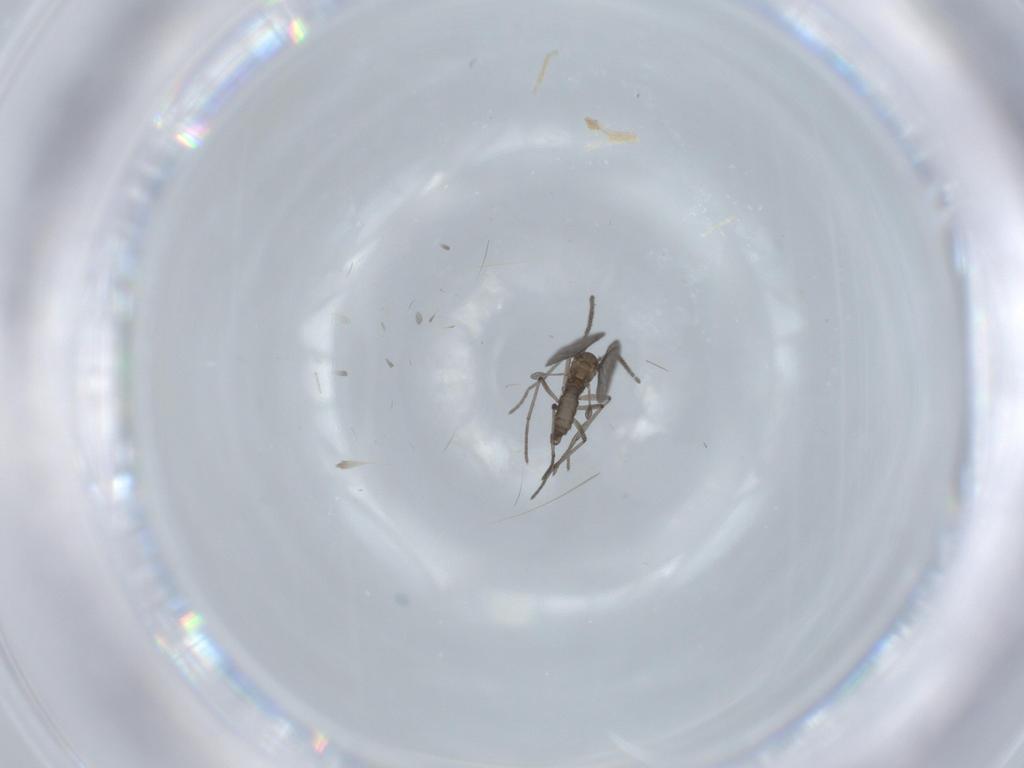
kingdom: Animalia
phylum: Arthropoda
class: Insecta
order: Diptera
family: Sciaridae
